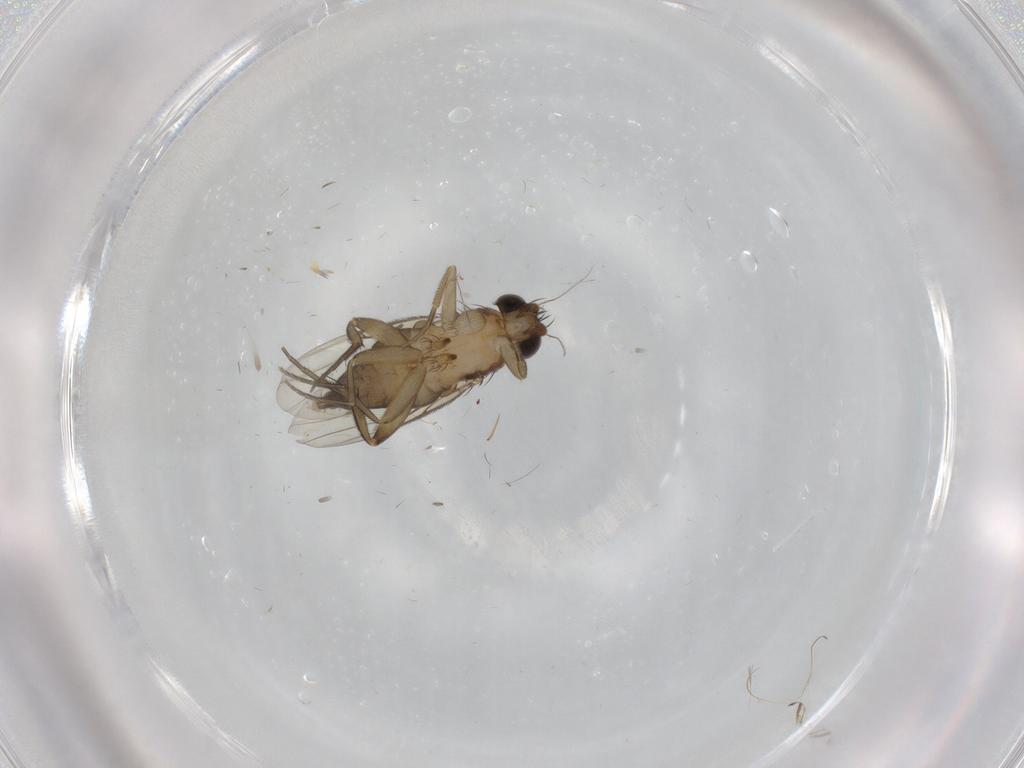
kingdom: Animalia
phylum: Arthropoda
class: Insecta
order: Diptera
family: Phoridae
